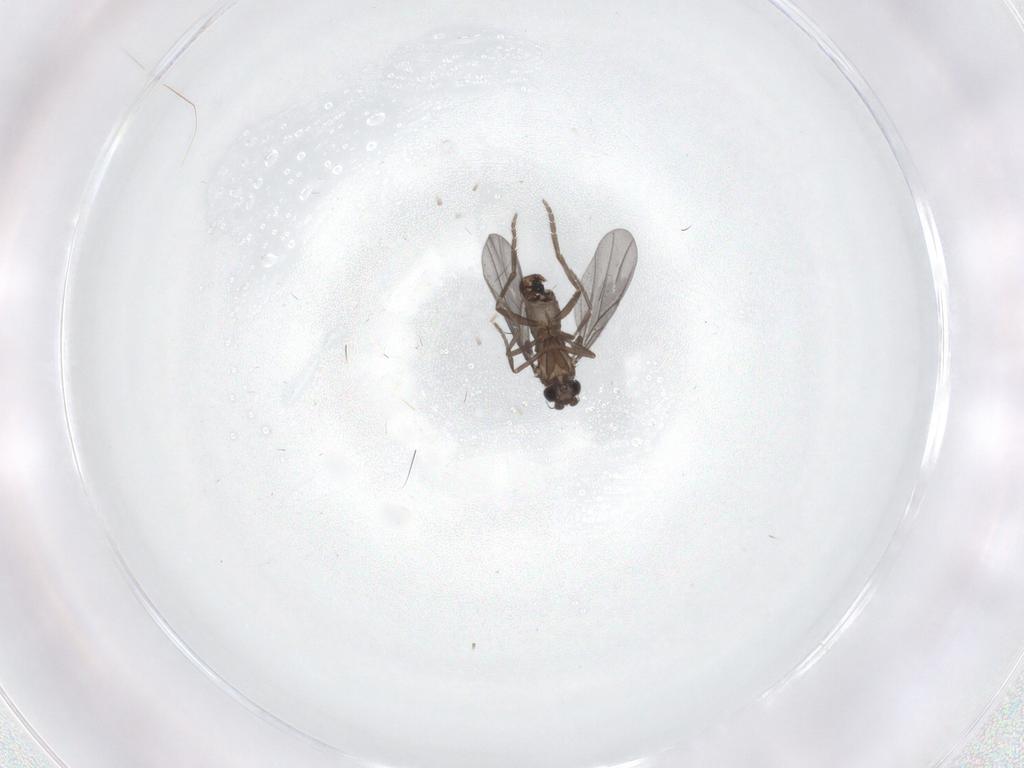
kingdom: Animalia
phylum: Arthropoda
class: Insecta
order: Diptera
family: Phoridae
